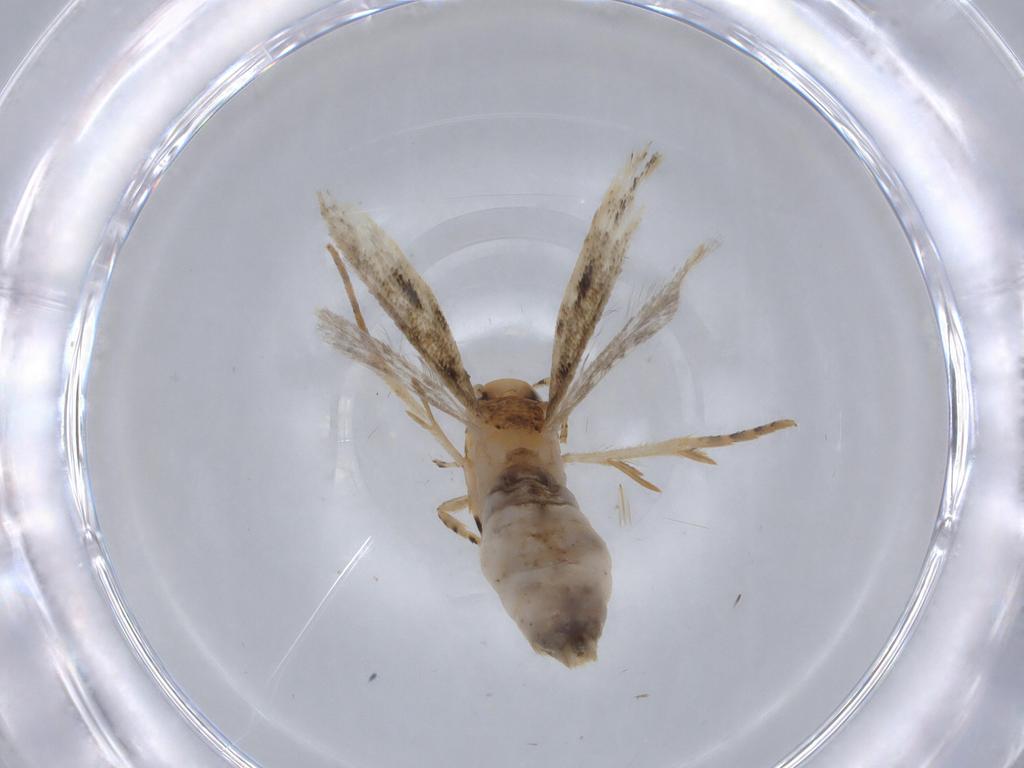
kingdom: Animalia
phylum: Arthropoda
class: Insecta
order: Lepidoptera
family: Gelechiidae
